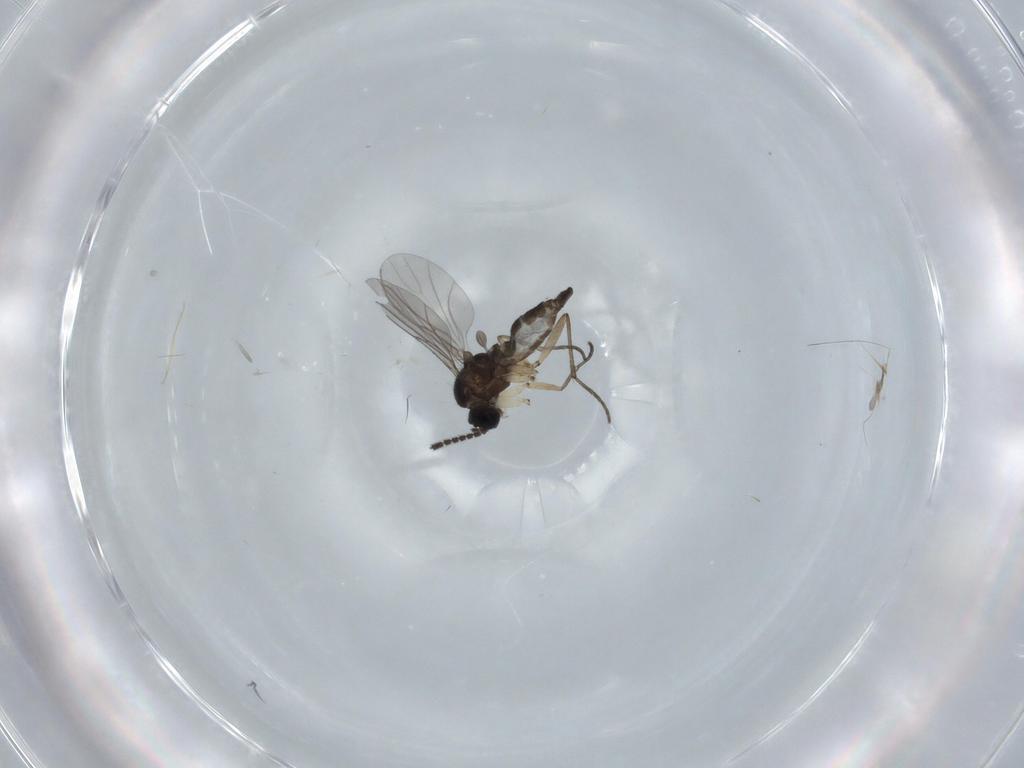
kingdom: Animalia
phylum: Arthropoda
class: Insecta
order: Diptera
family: Sciaridae
